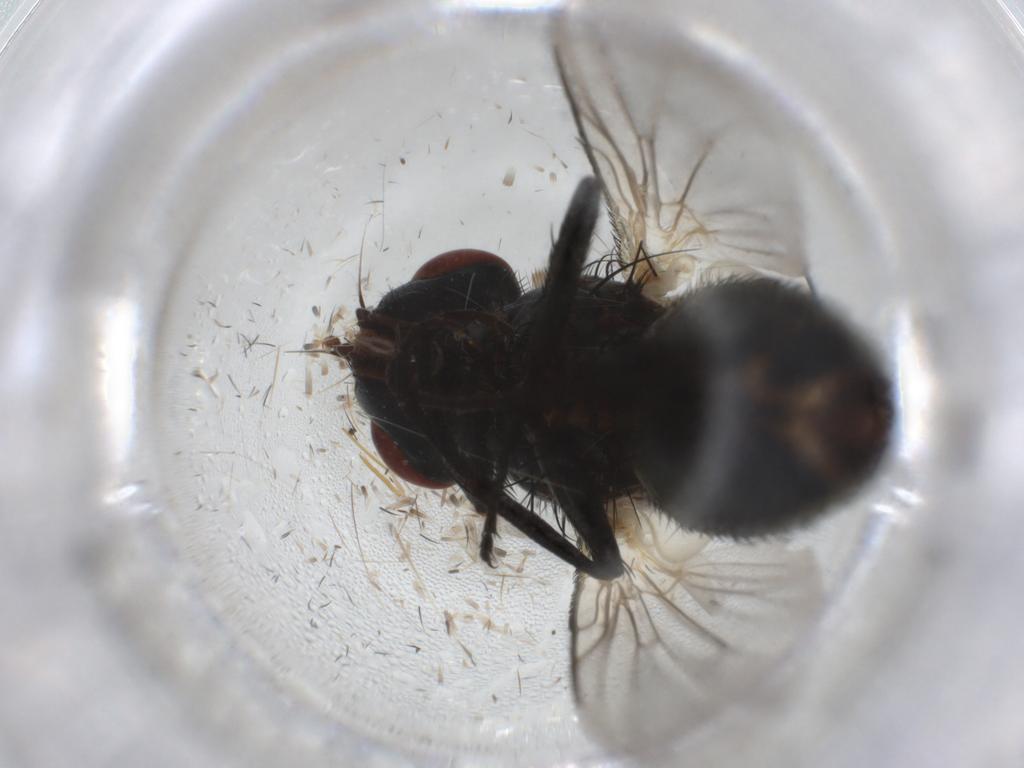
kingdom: Animalia
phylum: Arthropoda
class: Insecta
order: Diptera
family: Sarcophagidae
